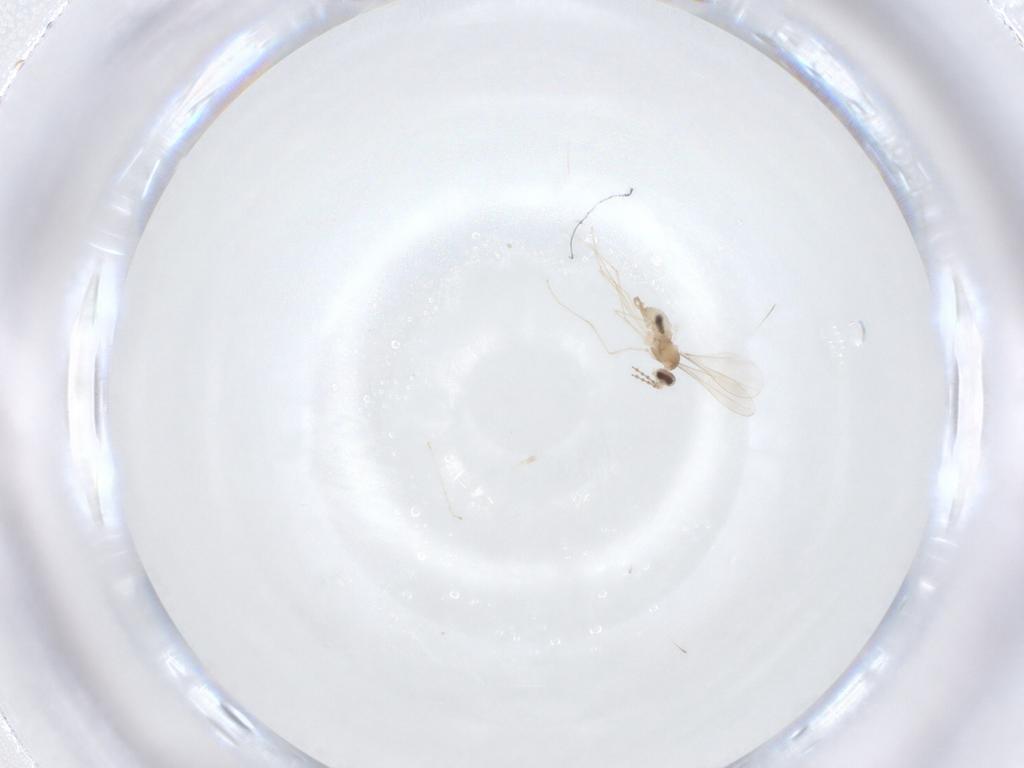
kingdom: Animalia
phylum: Arthropoda
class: Insecta
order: Diptera
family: Cecidomyiidae
